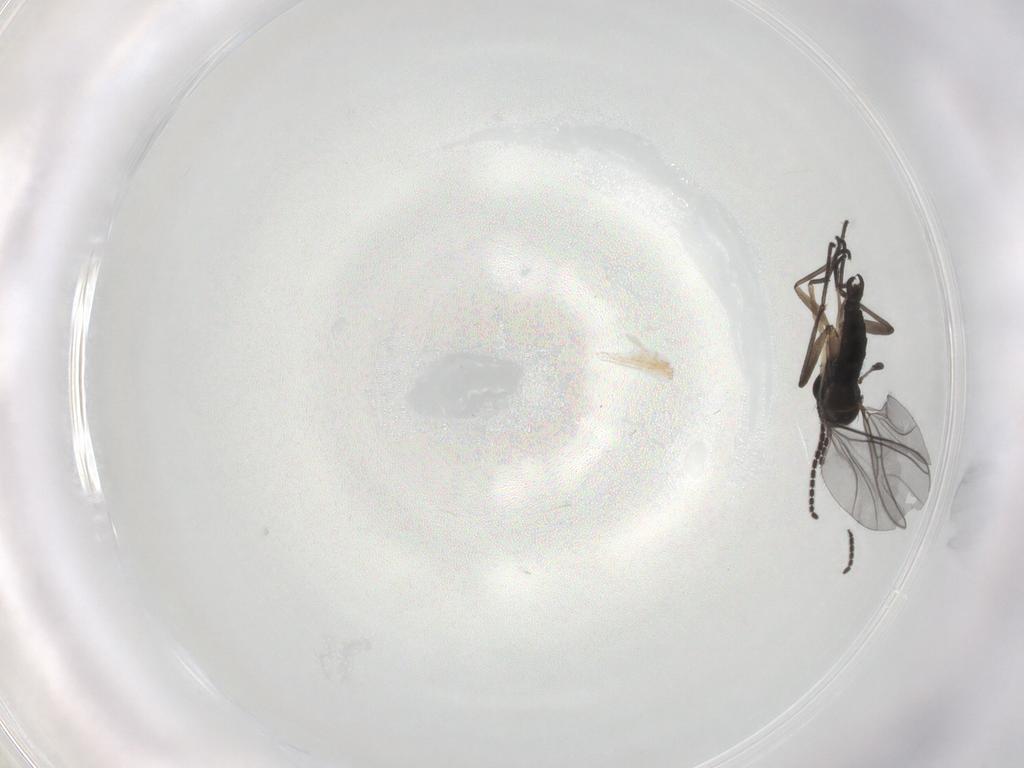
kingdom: Animalia
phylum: Arthropoda
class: Insecta
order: Diptera
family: Sciaridae
